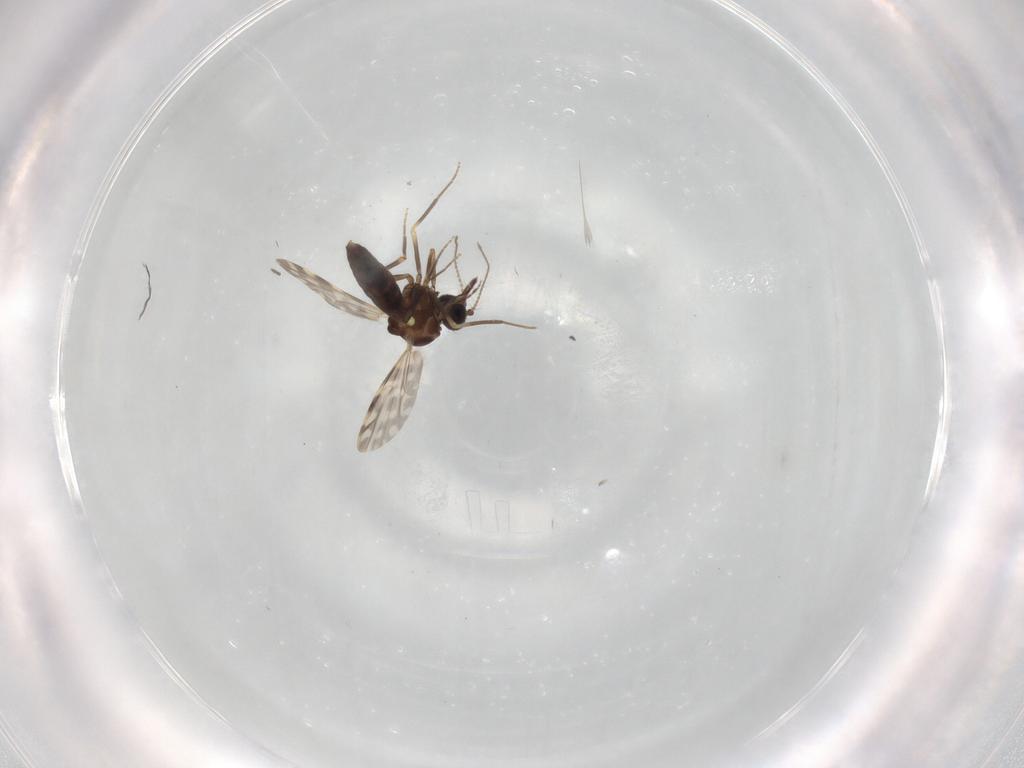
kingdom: Animalia
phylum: Arthropoda
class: Insecta
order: Diptera
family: Ceratopogonidae
